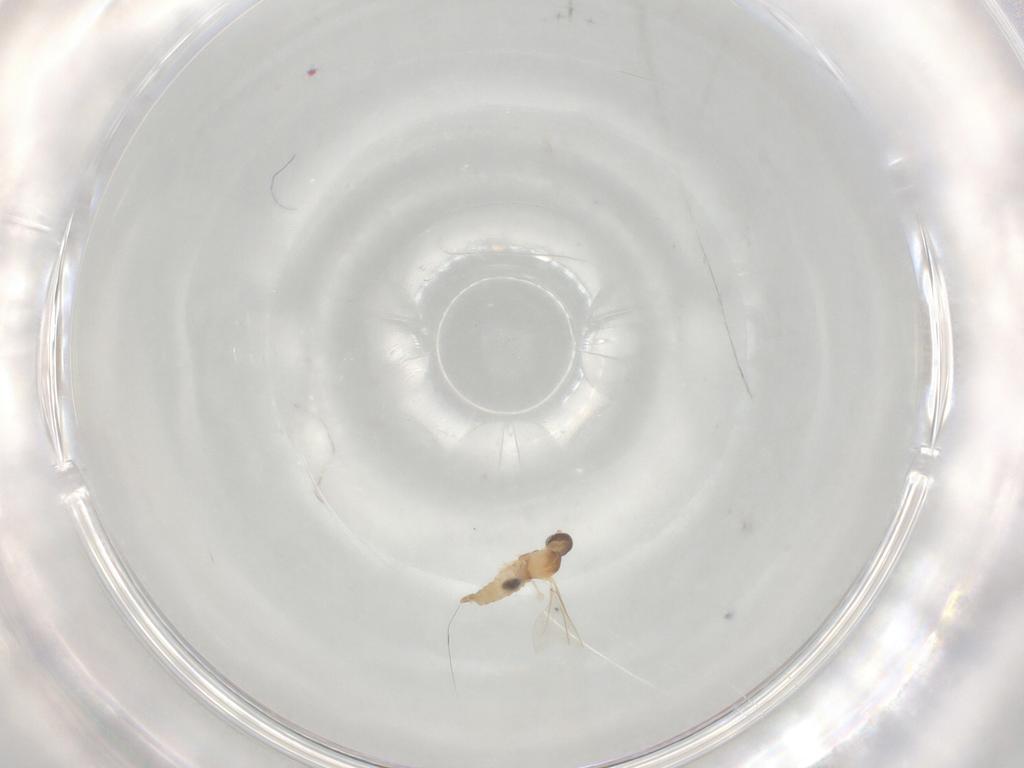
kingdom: Animalia
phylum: Arthropoda
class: Insecta
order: Diptera
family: Cecidomyiidae
